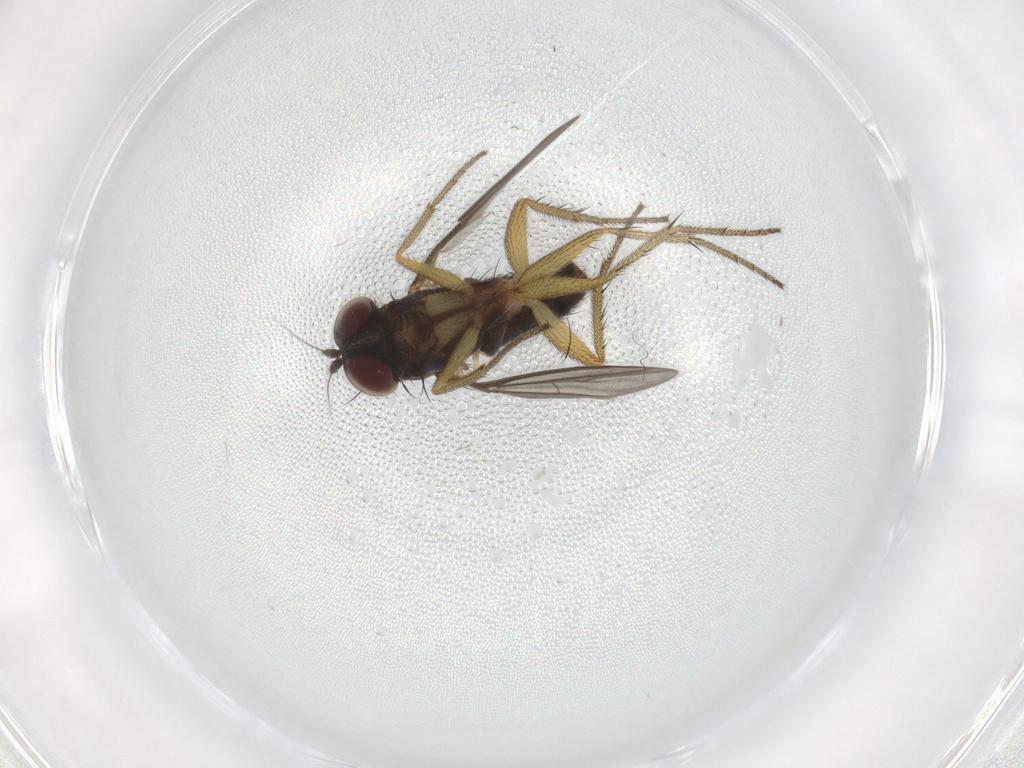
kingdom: Animalia
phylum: Arthropoda
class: Insecta
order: Diptera
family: Dolichopodidae
